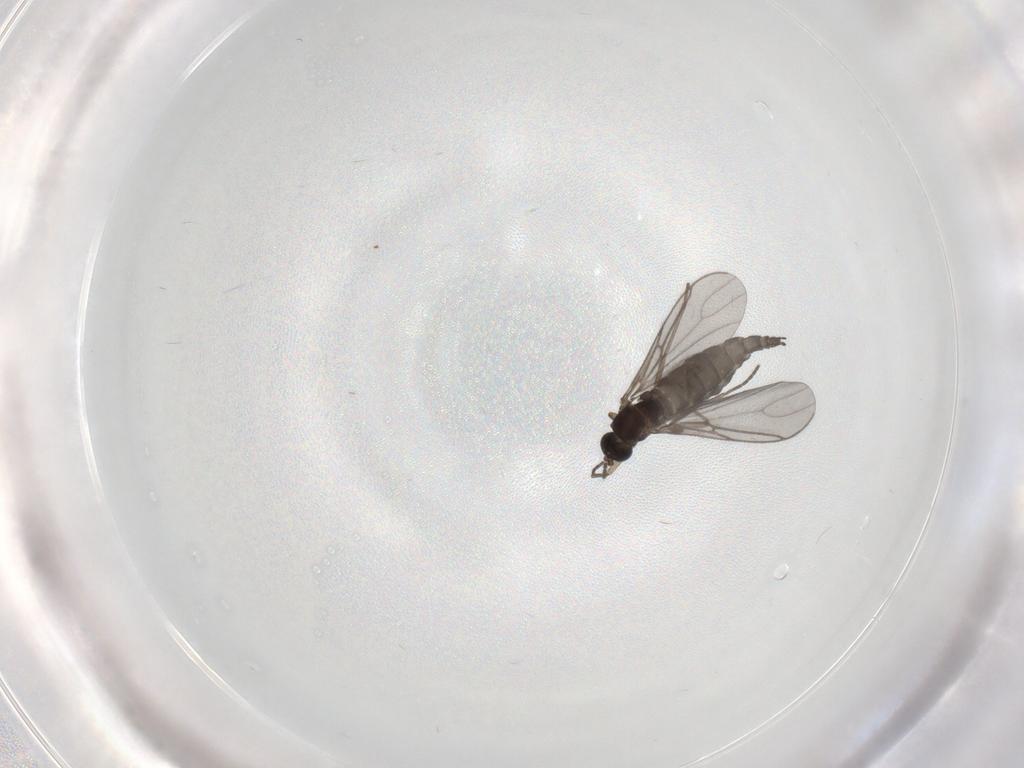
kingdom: Animalia
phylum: Arthropoda
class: Insecta
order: Diptera
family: Sciaridae
